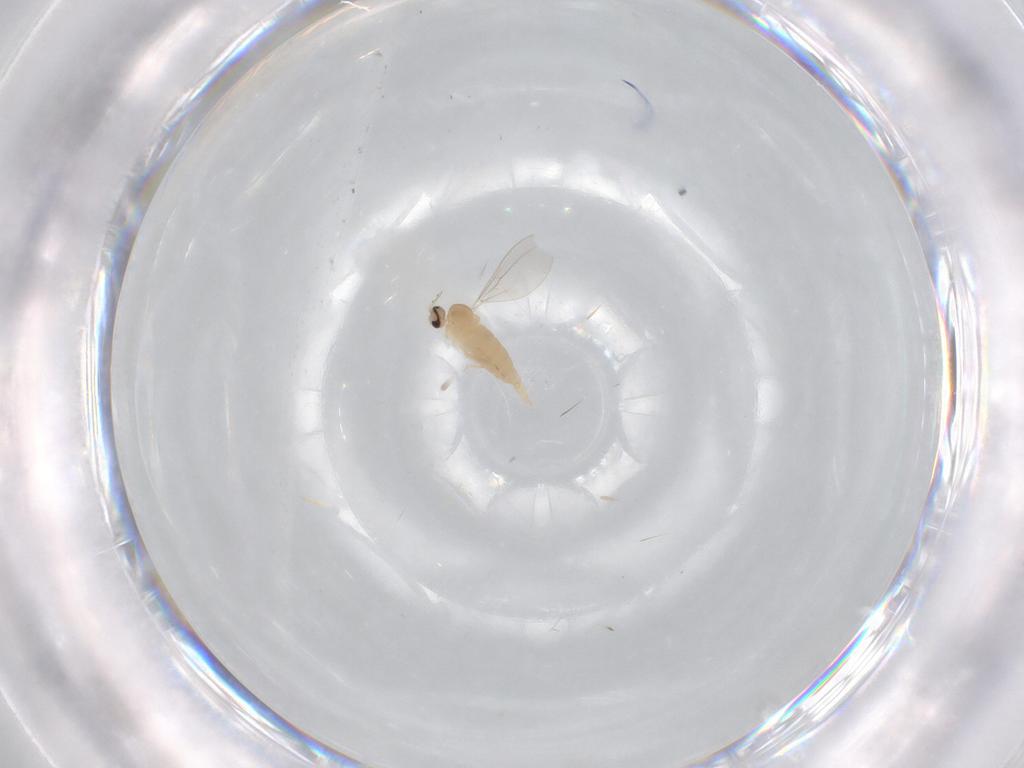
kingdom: Animalia
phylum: Arthropoda
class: Insecta
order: Diptera
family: Cecidomyiidae
